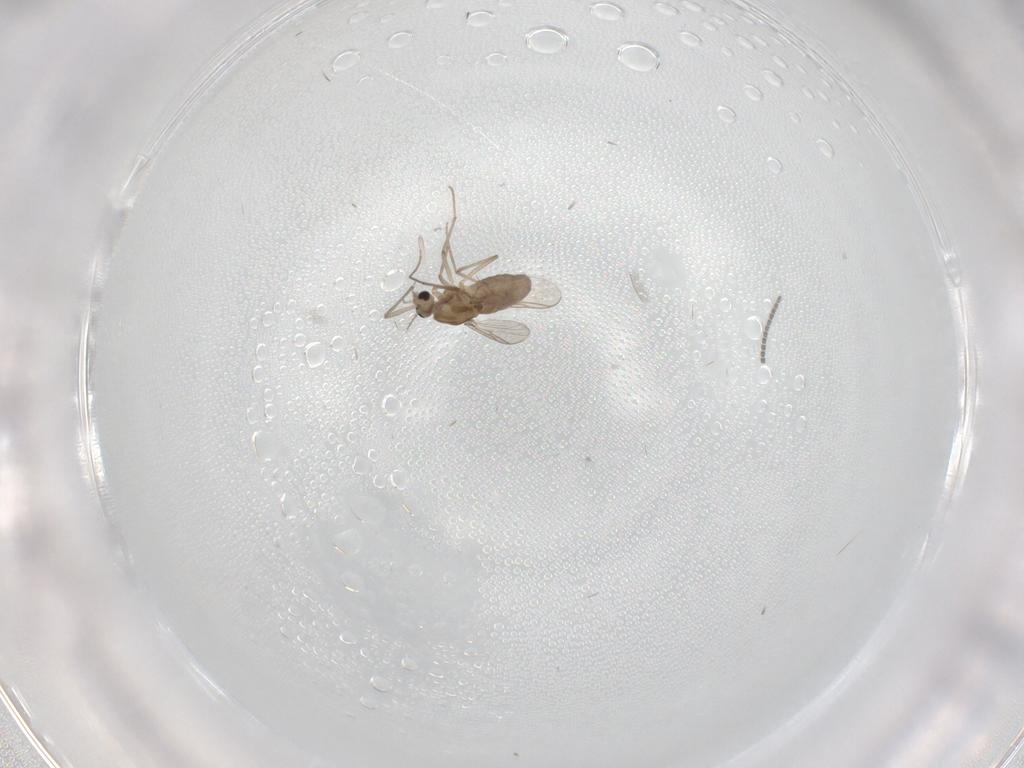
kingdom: Animalia
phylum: Arthropoda
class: Insecta
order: Diptera
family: Chironomidae
